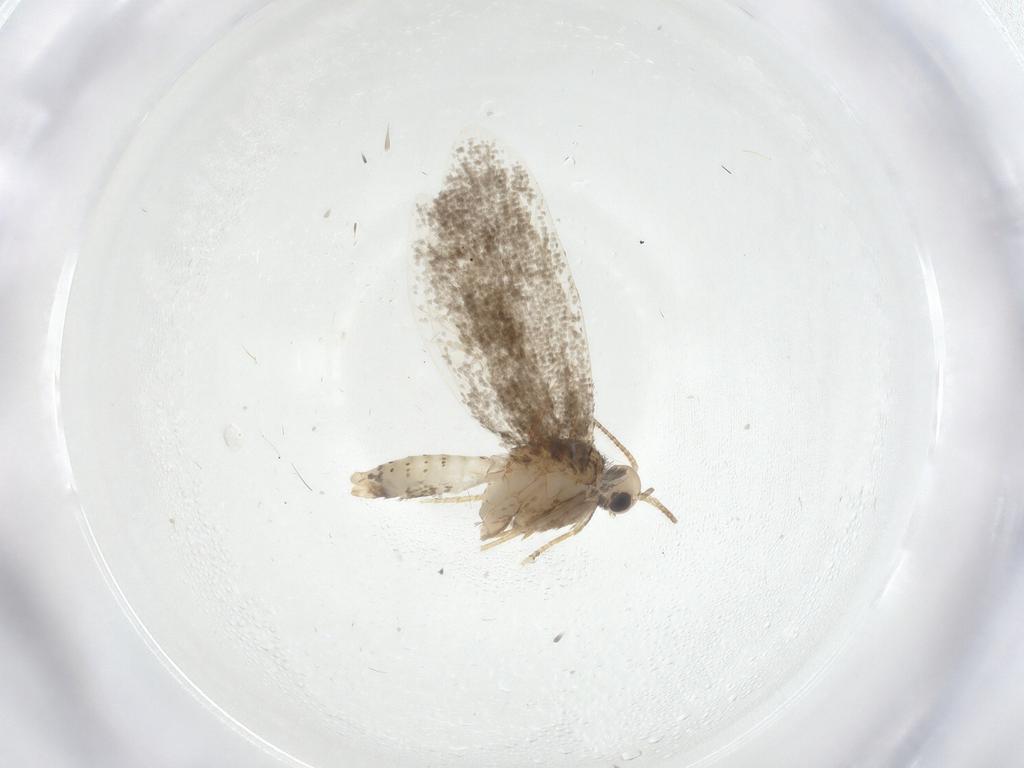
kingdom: Animalia
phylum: Arthropoda
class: Insecta
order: Lepidoptera
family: Psychidae
